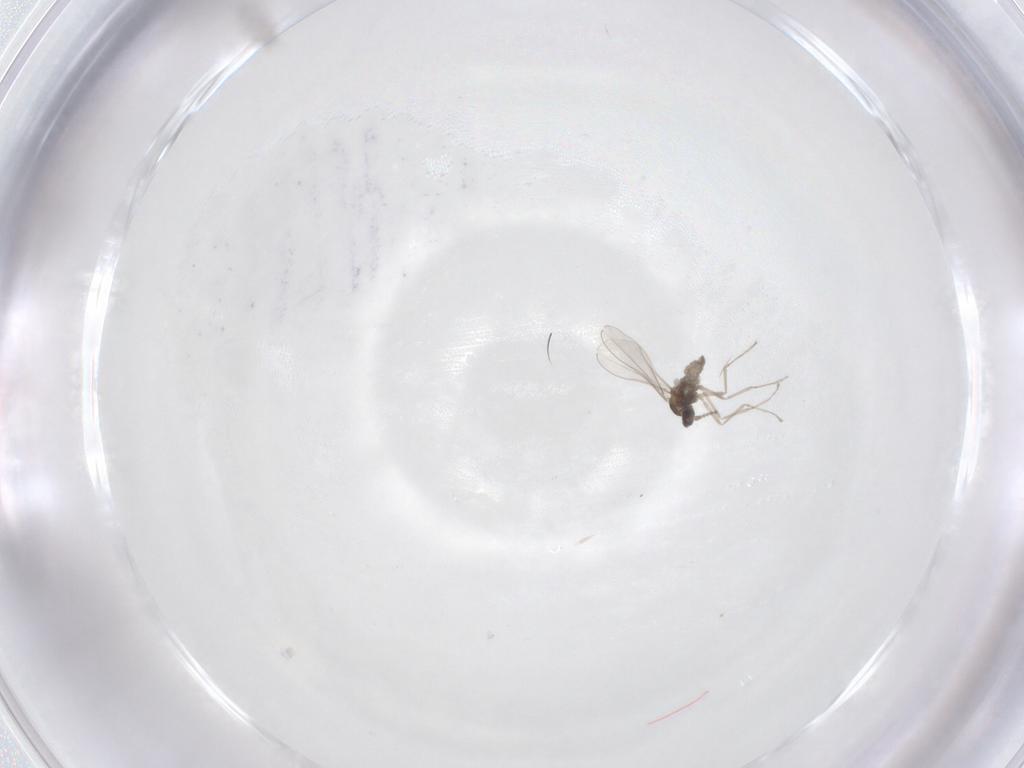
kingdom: Animalia
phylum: Arthropoda
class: Insecta
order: Diptera
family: Cecidomyiidae
